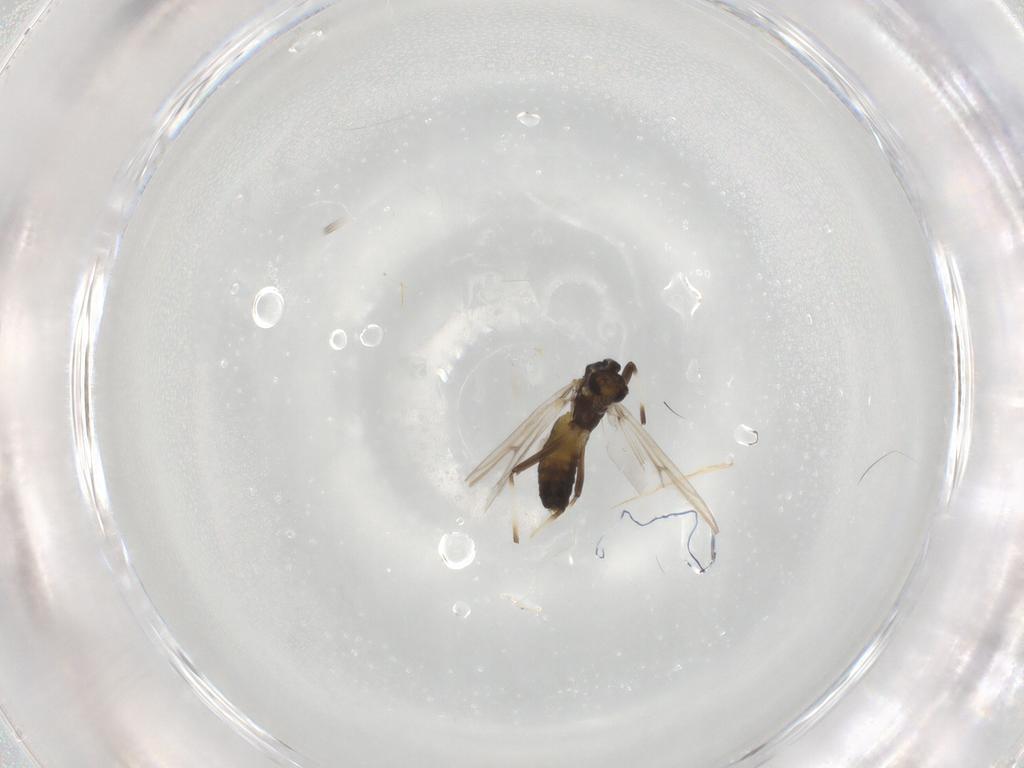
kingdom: Animalia
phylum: Arthropoda
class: Insecta
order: Diptera
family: Chironomidae
